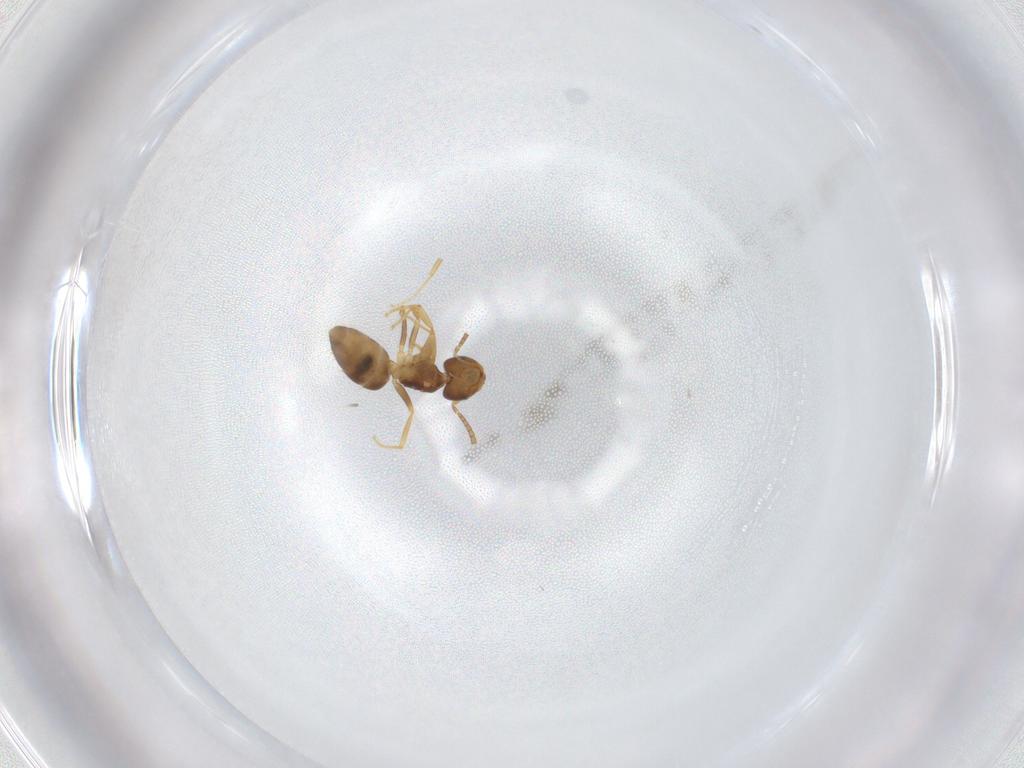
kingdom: Animalia
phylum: Arthropoda
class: Insecta
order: Hymenoptera
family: Formicidae
